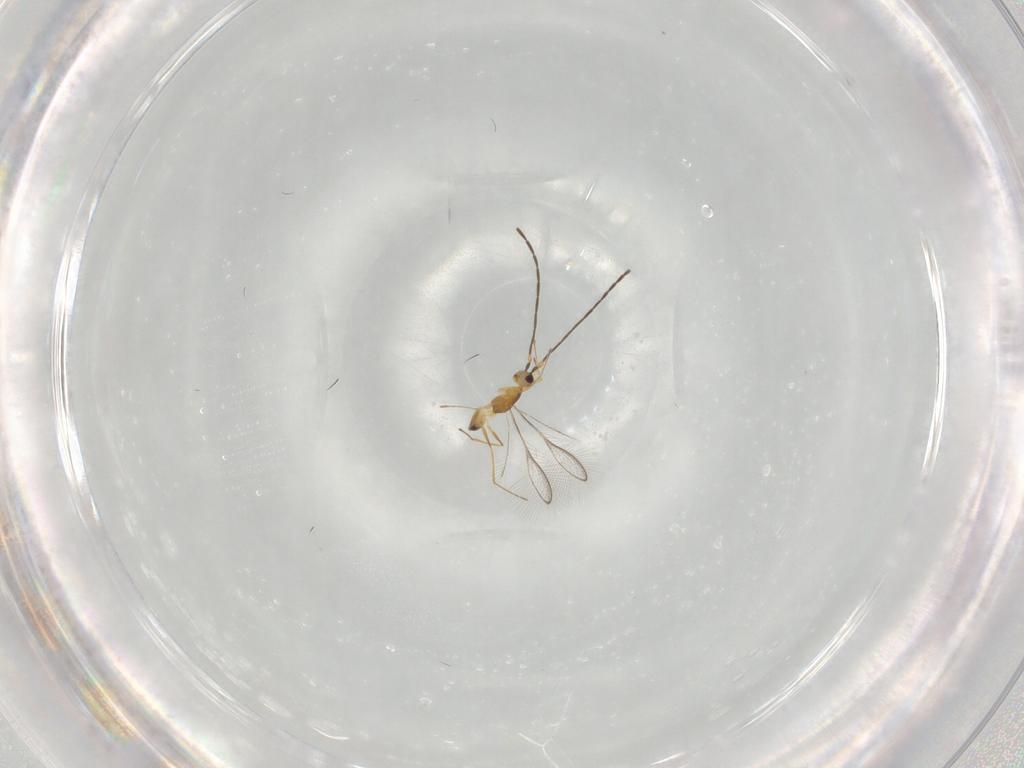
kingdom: Animalia
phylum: Arthropoda
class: Insecta
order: Hymenoptera
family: Mymaridae
